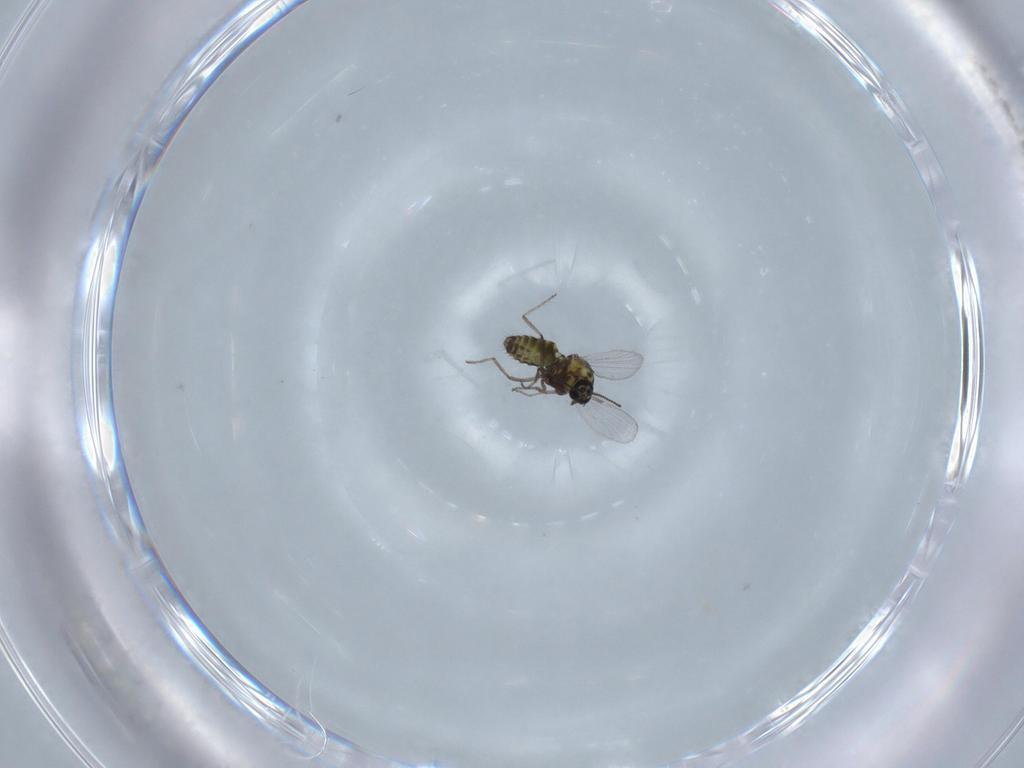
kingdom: Animalia
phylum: Arthropoda
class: Insecta
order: Diptera
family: Ceratopogonidae
